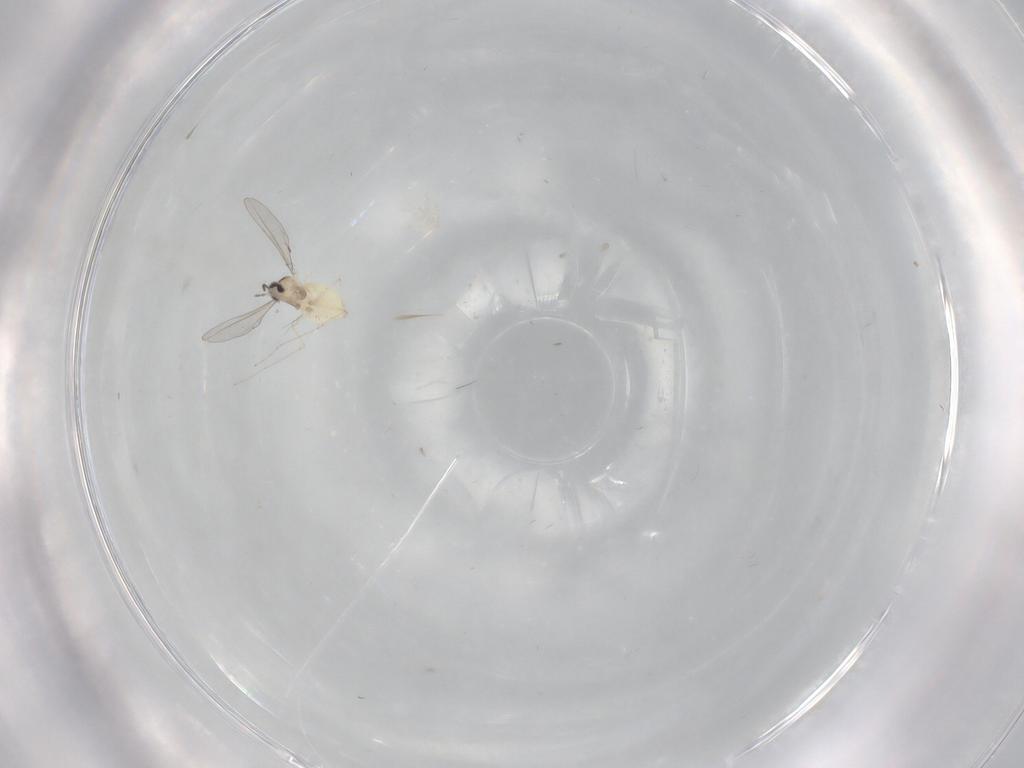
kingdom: Animalia
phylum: Arthropoda
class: Insecta
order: Diptera
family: Cecidomyiidae
